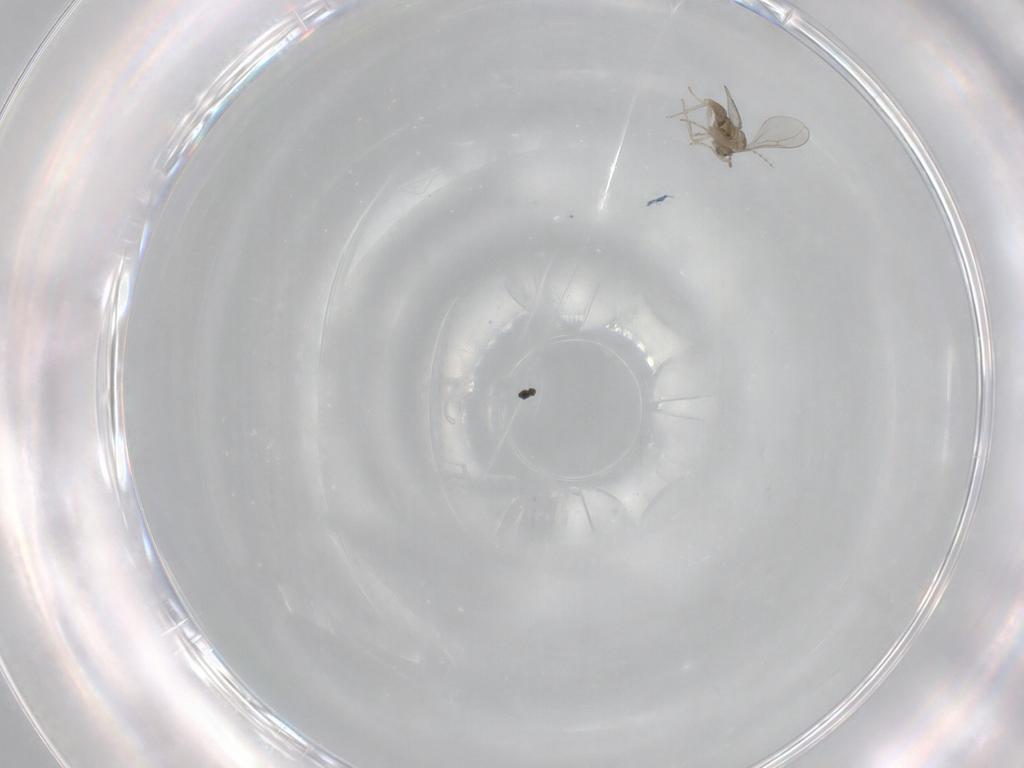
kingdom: Animalia
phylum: Arthropoda
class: Insecta
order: Diptera
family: Cecidomyiidae
